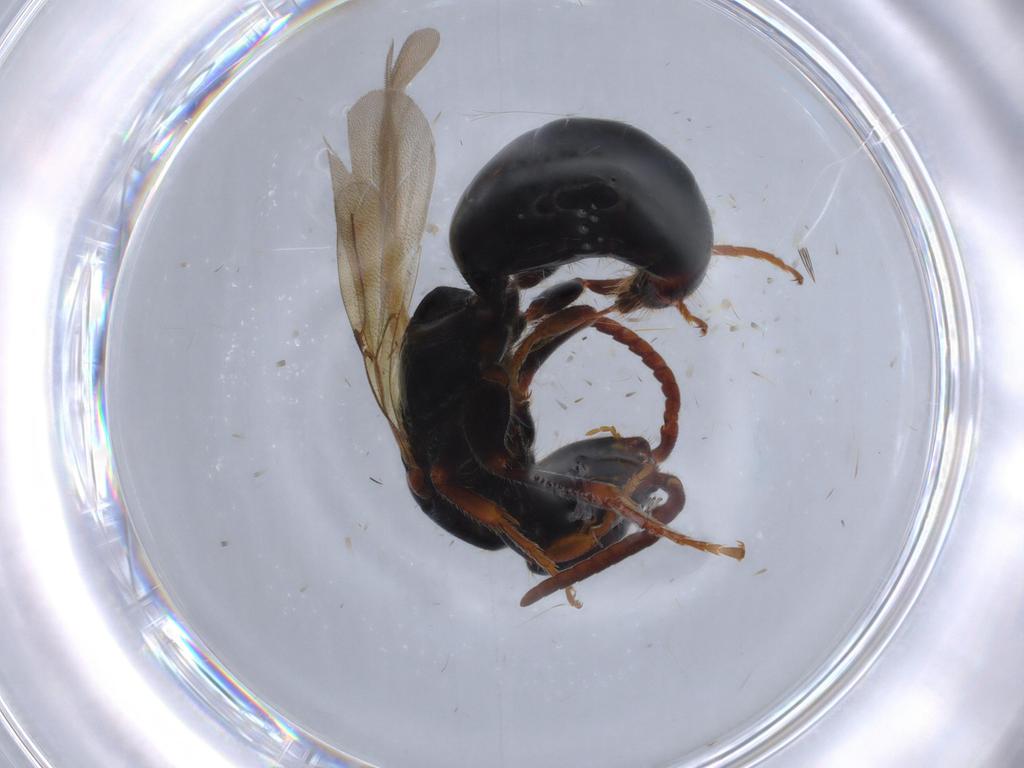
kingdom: Animalia
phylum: Arthropoda
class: Insecta
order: Hymenoptera
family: Bethylidae
